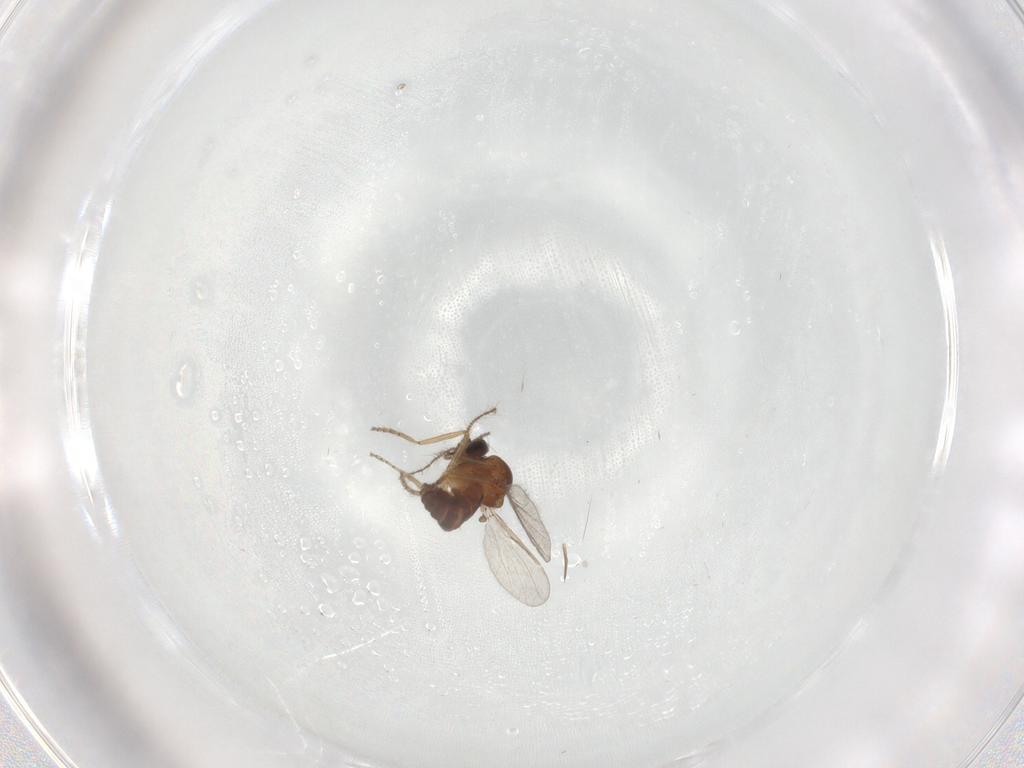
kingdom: Animalia
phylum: Arthropoda
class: Insecta
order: Diptera
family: Ceratopogonidae
